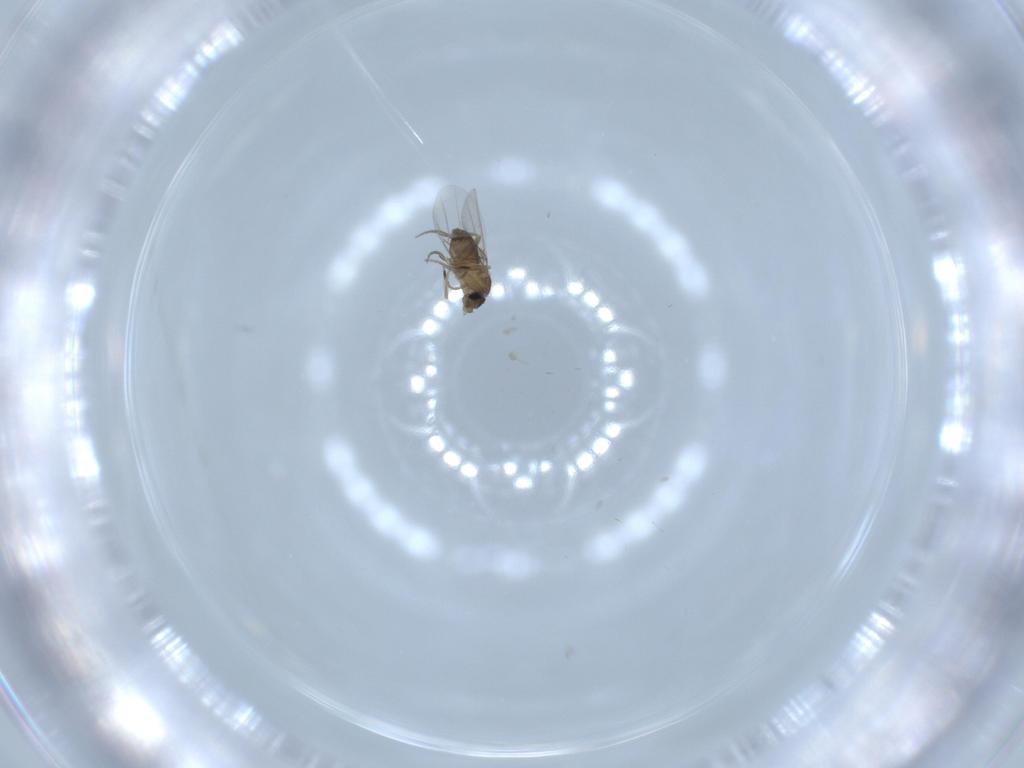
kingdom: Animalia
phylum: Arthropoda
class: Insecta
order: Diptera
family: Phoridae
